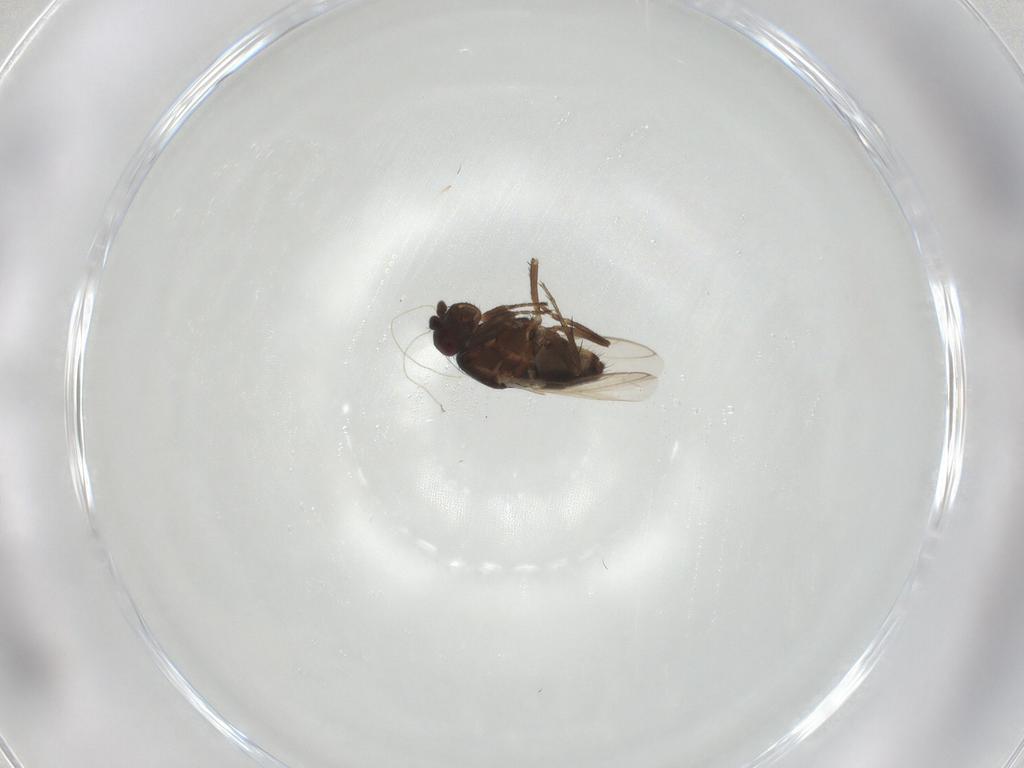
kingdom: Animalia
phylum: Arthropoda
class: Insecta
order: Diptera
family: Sphaeroceridae
